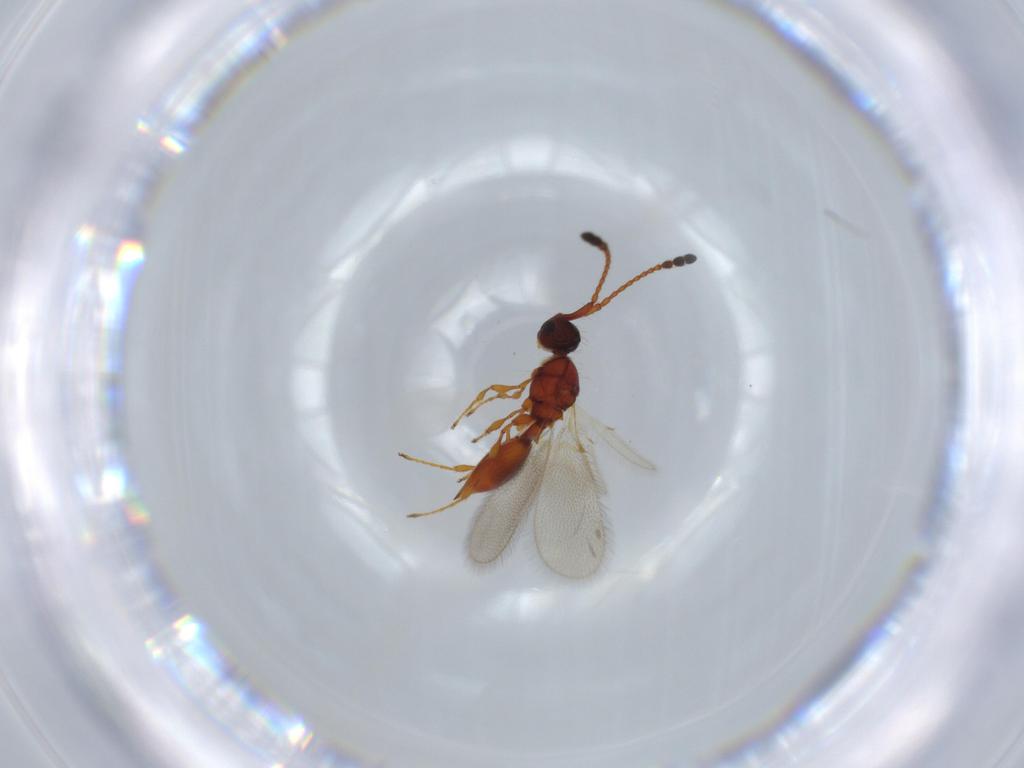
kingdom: Animalia
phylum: Arthropoda
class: Insecta
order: Hymenoptera
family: Diapriidae
